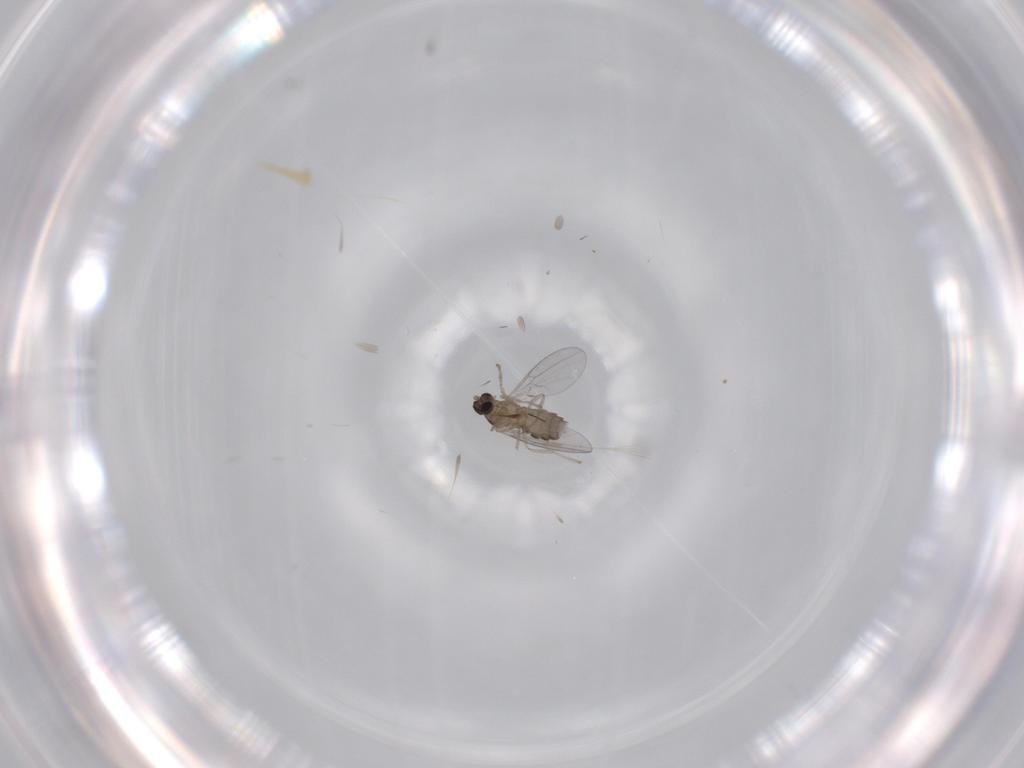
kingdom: Animalia
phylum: Arthropoda
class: Insecta
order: Diptera
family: Cecidomyiidae
